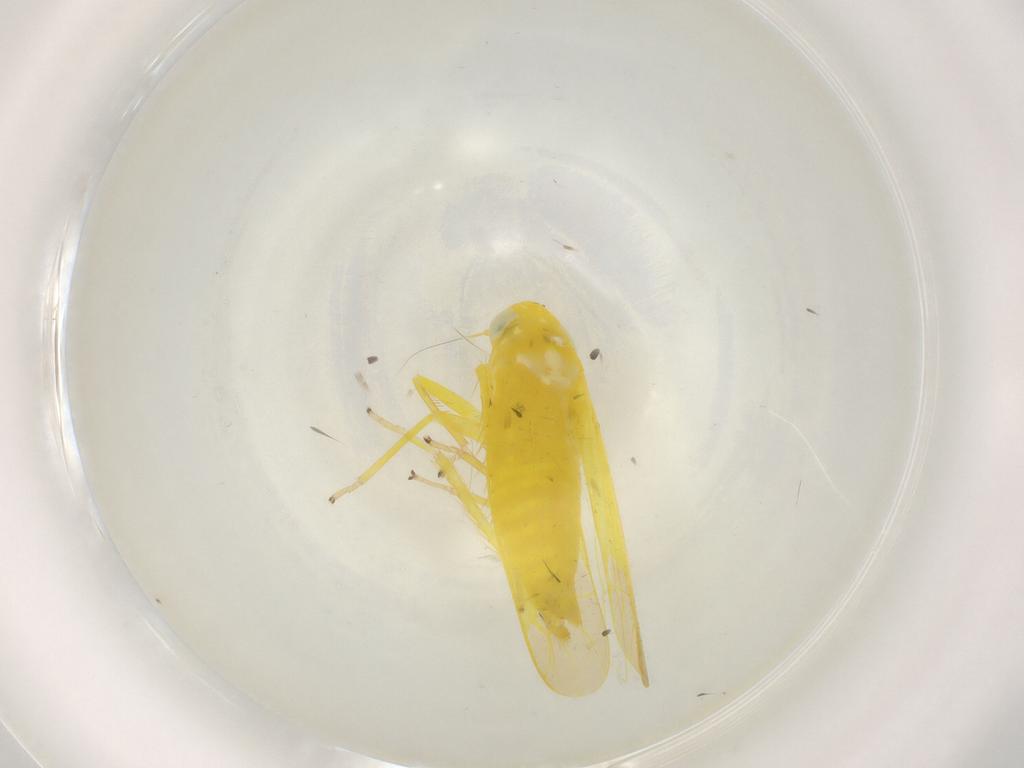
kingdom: Animalia
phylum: Arthropoda
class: Insecta
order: Hemiptera
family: Cicadellidae
